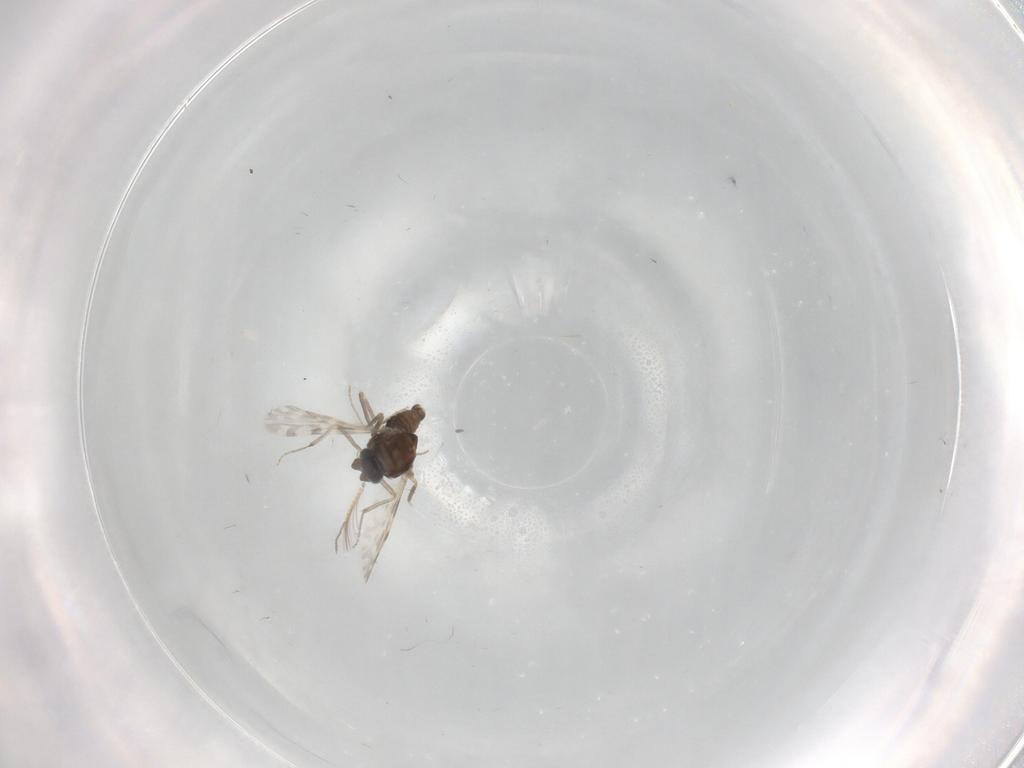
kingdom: Animalia
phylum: Arthropoda
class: Insecta
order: Diptera
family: Cecidomyiidae
